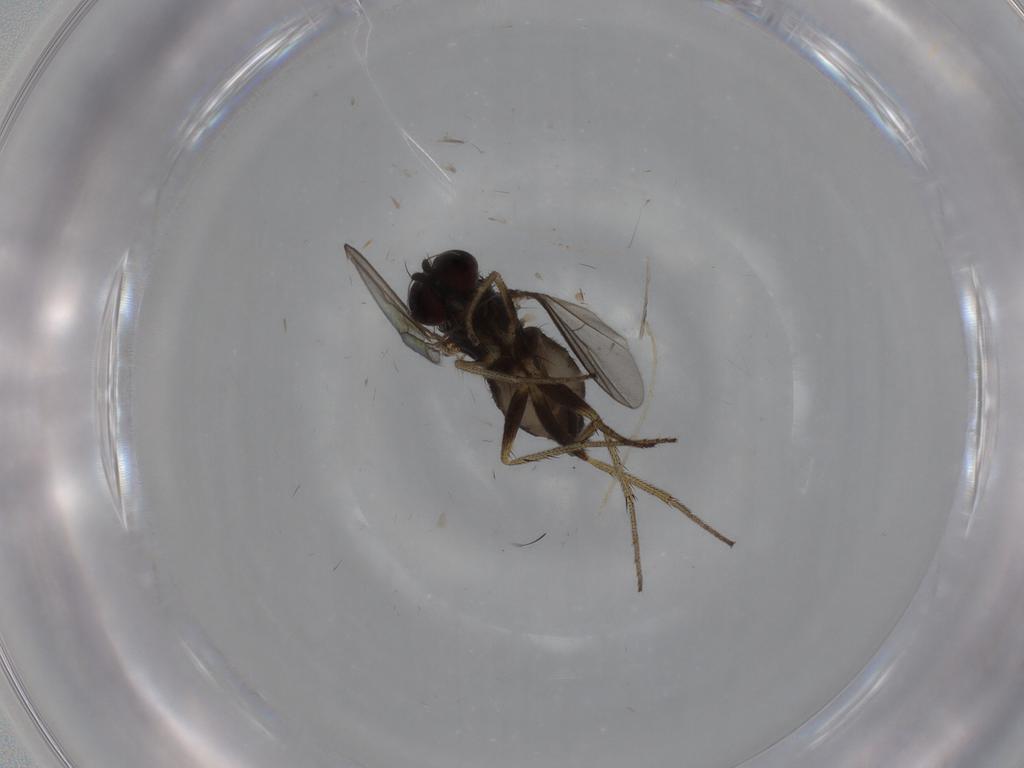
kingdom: Animalia
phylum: Arthropoda
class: Insecta
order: Diptera
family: Dolichopodidae
